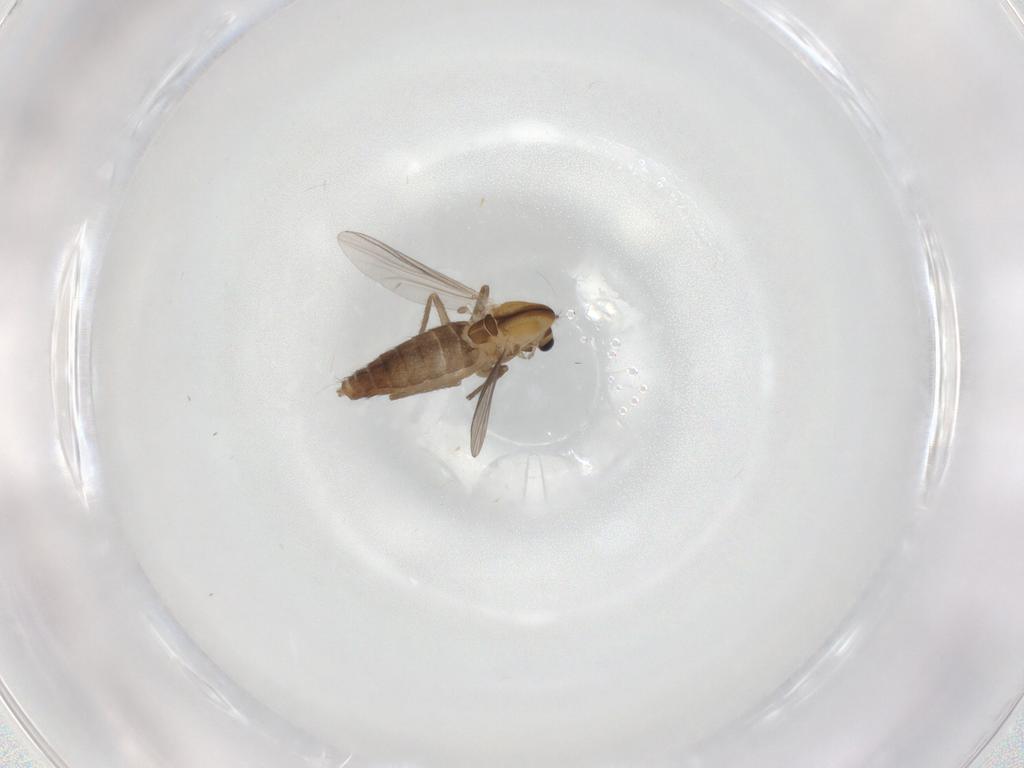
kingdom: Animalia
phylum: Arthropoda
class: Insecta
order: Diptera
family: Chironomidae
